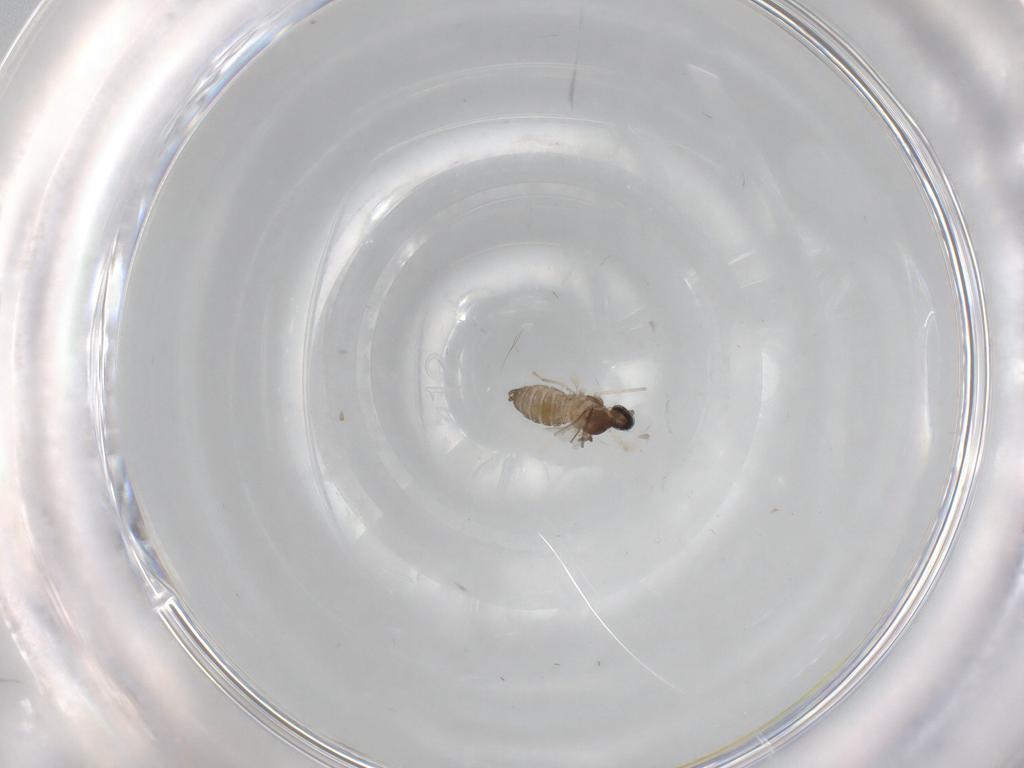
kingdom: Animalia
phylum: Arthropoda
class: Insecta
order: Diptera
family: Cecidomyiidae
